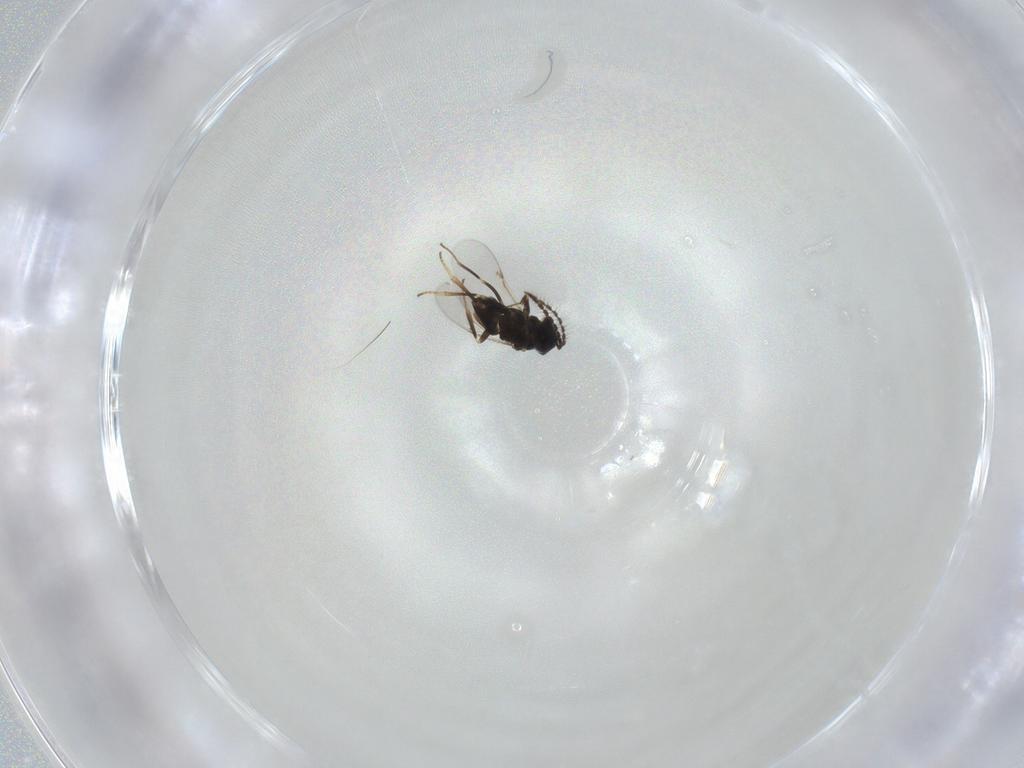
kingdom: Animalia
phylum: Arthropoda
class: Insecta
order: Hymenoptera
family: Encyrtidae
